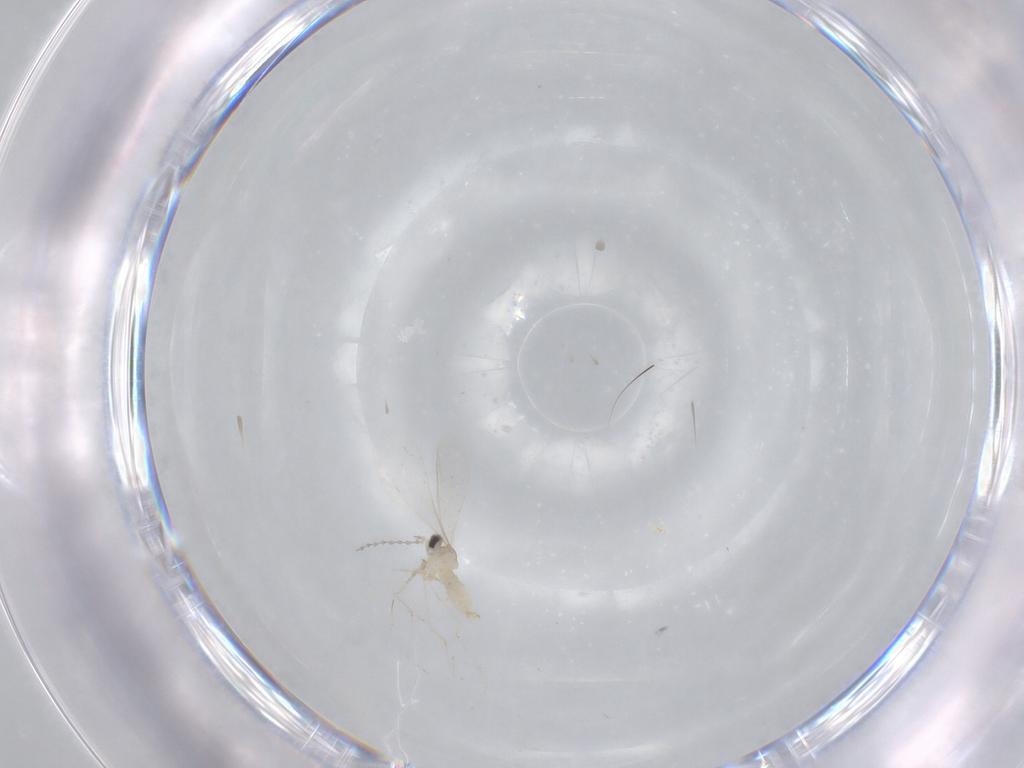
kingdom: Animalia
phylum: Arthropoda
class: Insecta
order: Diptera
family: Cecidomyiidae
